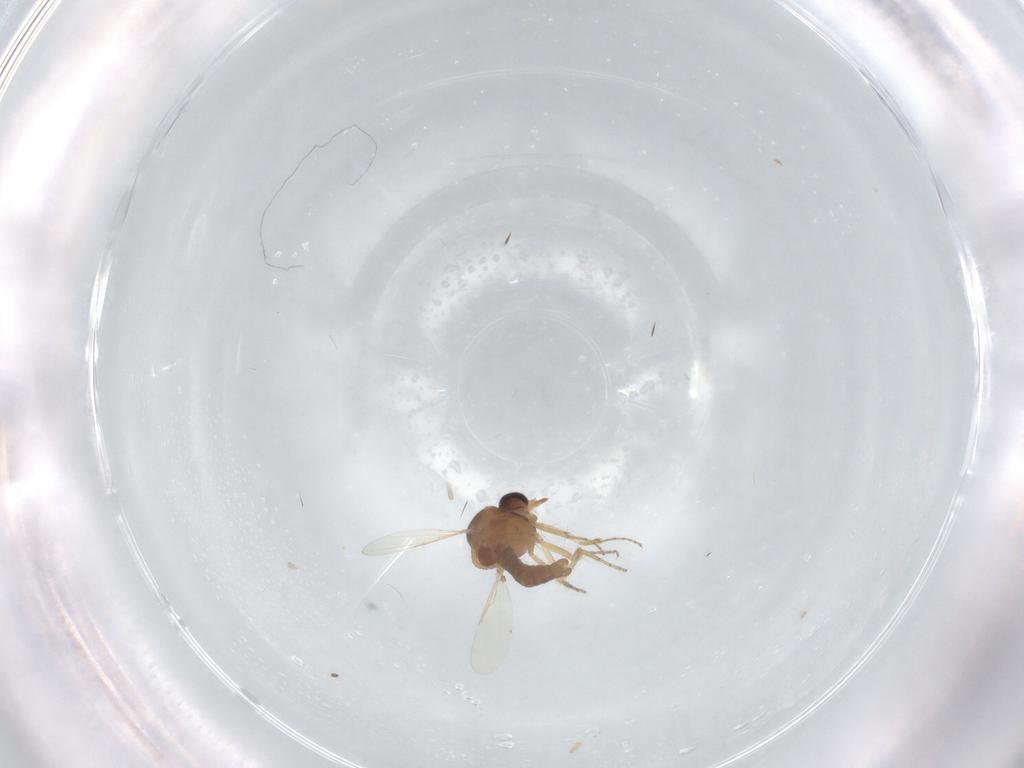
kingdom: Animalia
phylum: Arthropoda
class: Insecta
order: Diptera
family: Ceratopogonidae
